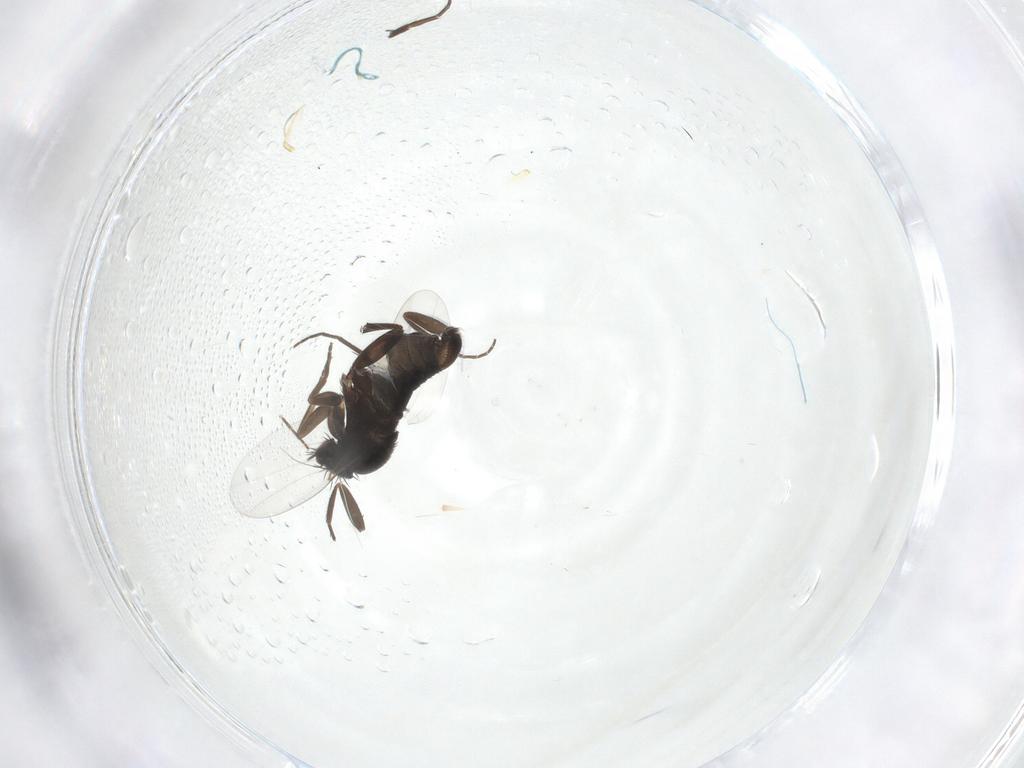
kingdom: Animalia
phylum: Arthropoda
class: Insecta
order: Diptera
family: Phoridae
